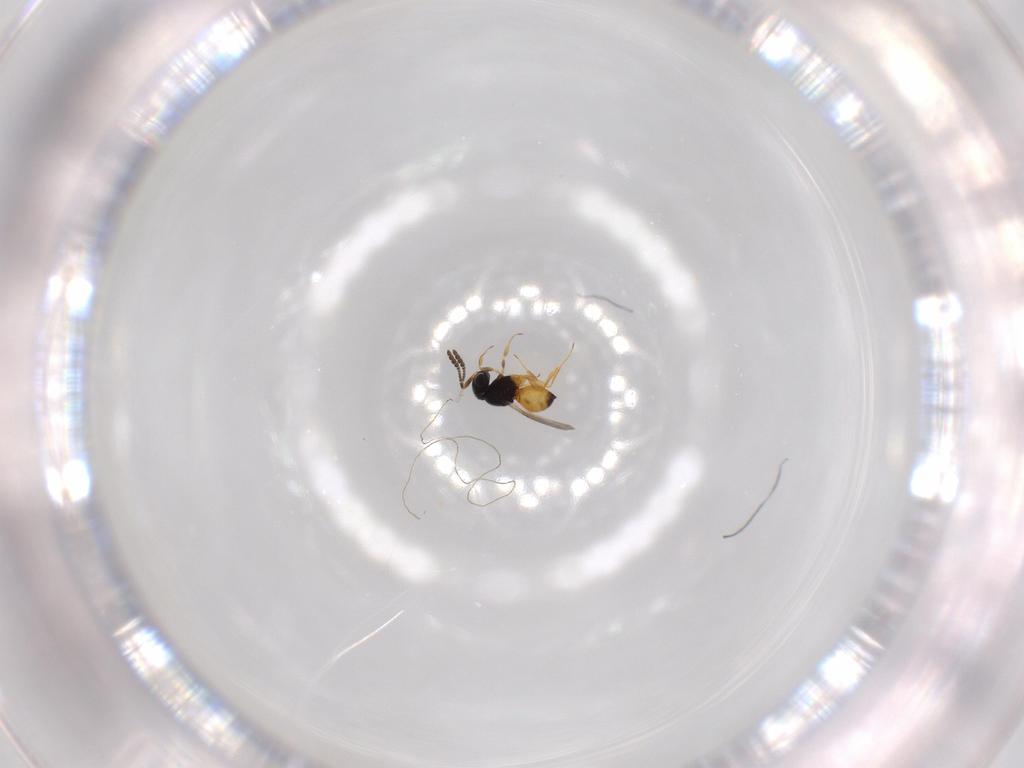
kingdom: Animalia
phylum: Arthropoda
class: Insecta
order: Hymenoptera
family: Scelionidae
